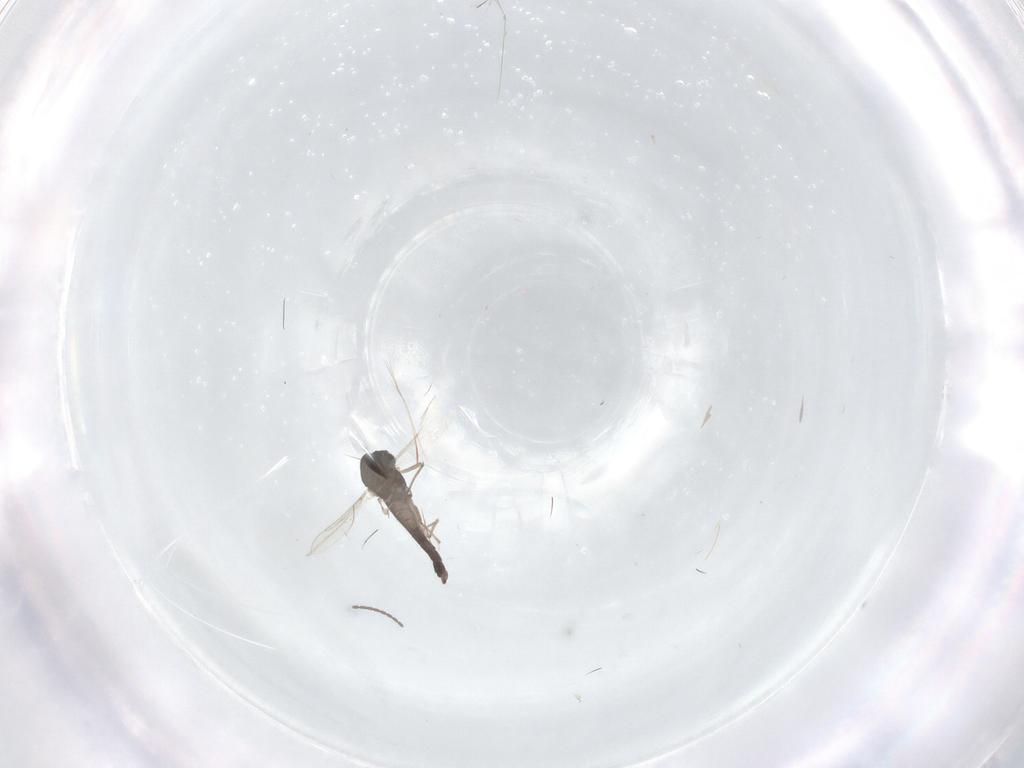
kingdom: Animalia
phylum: Arthropoda
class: Insecta
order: Diptera
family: Chironomidae
